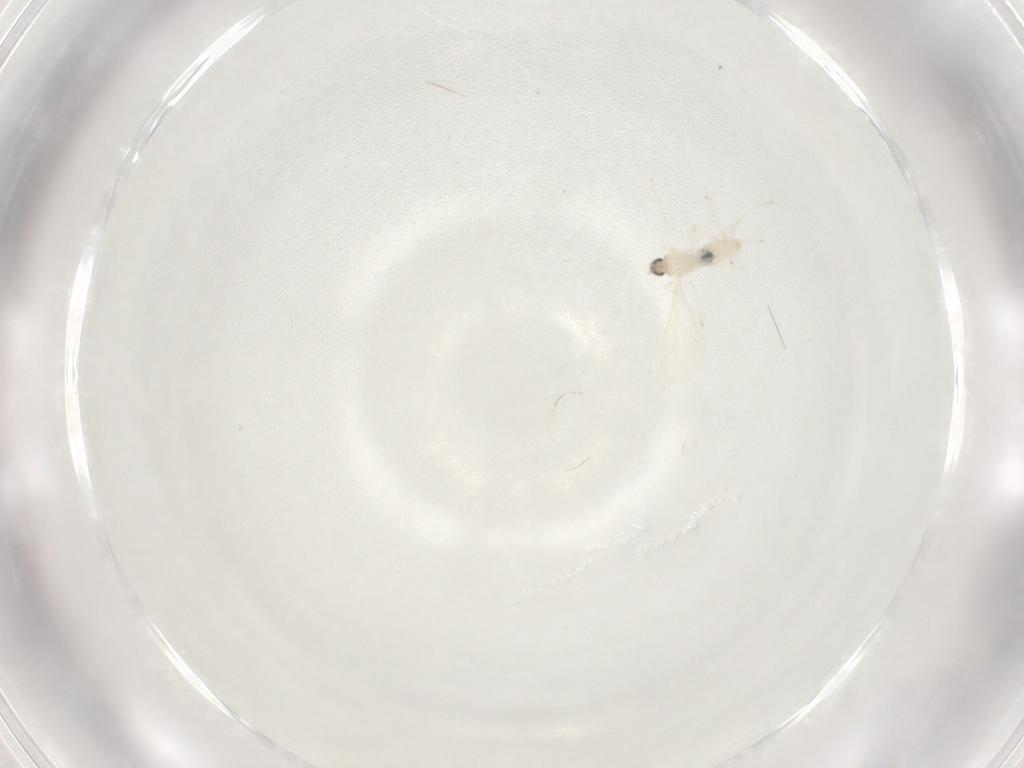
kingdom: Animalia
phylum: Arthropoda
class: Insecta
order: Diptera
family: Cecidomyiidae
